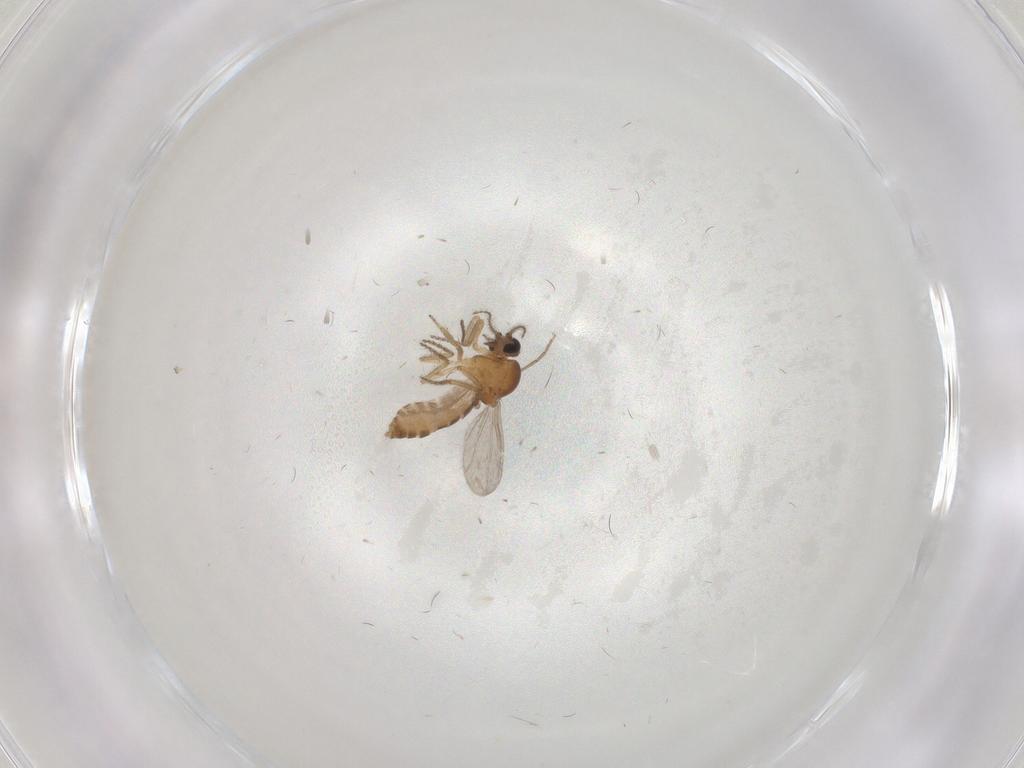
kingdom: Animalia
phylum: Arthropoda
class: Insecta
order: Diptera
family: Ceratopogonidae
